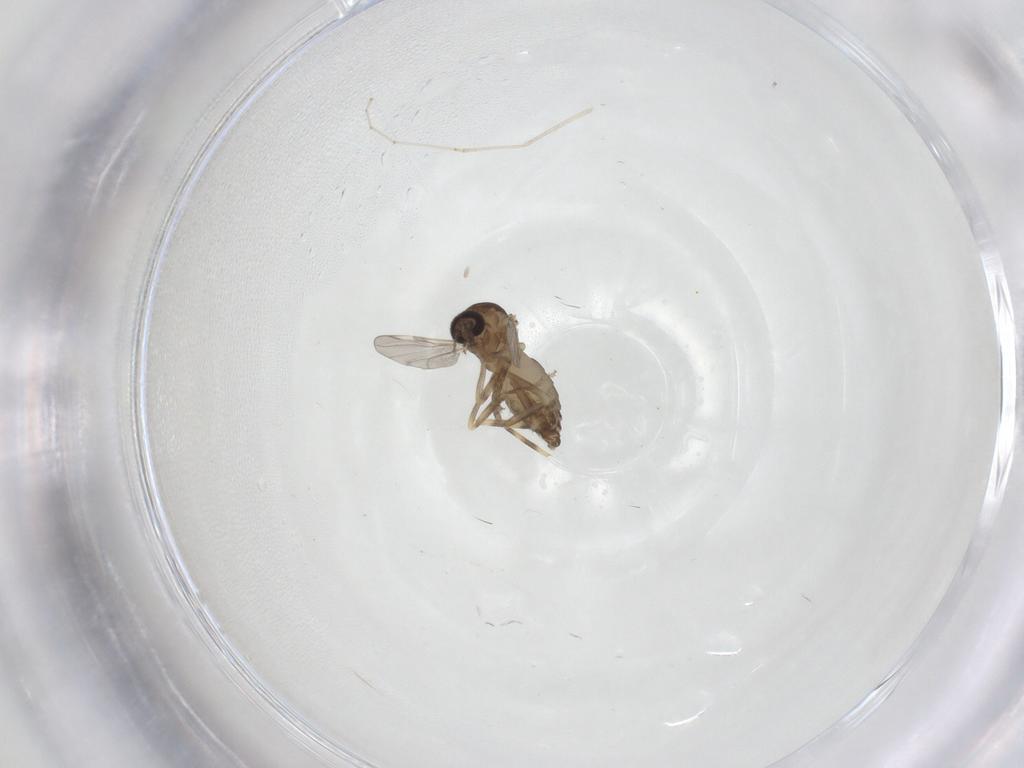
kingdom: Animalia
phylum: Arthropoda
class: Insecta
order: Diptera
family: Ceratopogonidae
